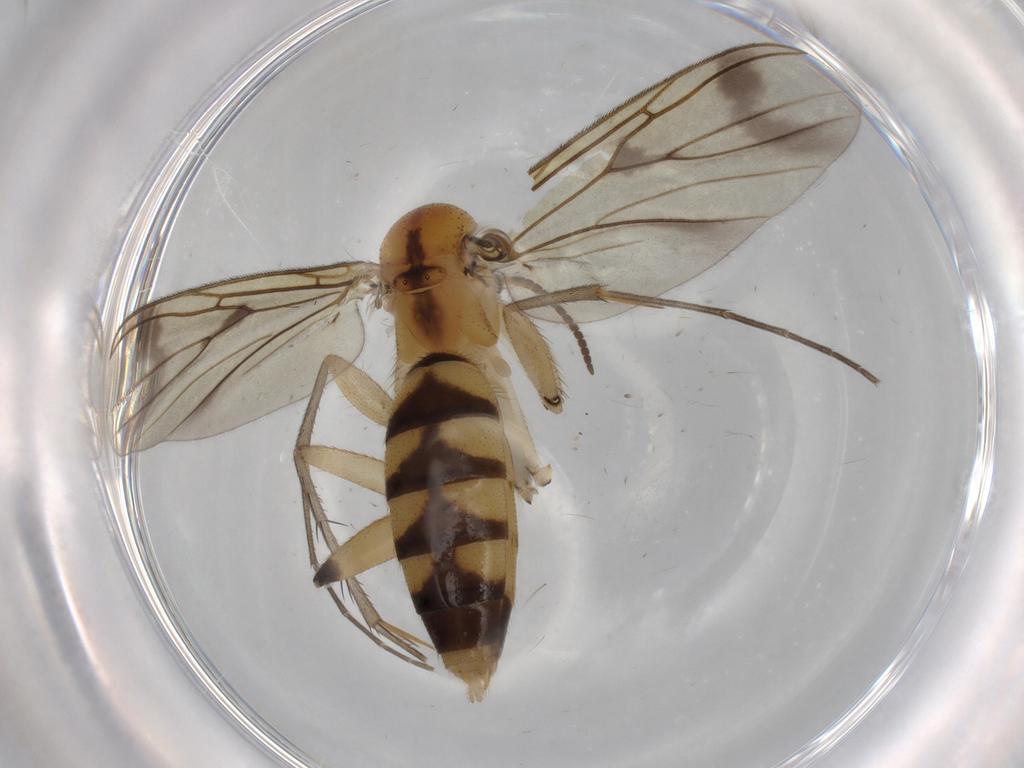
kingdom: Animalia
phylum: Arthropoda
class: Insecta
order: Diptera
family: Mycetophilidae
